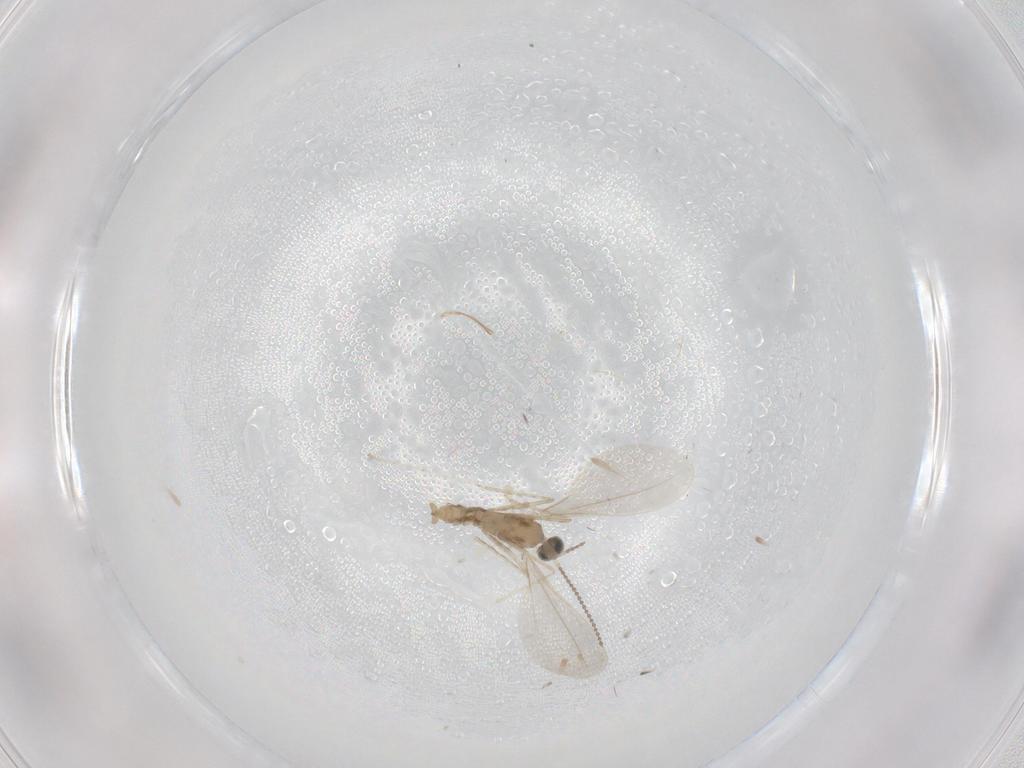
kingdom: Animalia
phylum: Arthropoda
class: Insecta
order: Diptera
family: Cecidomyiidae
